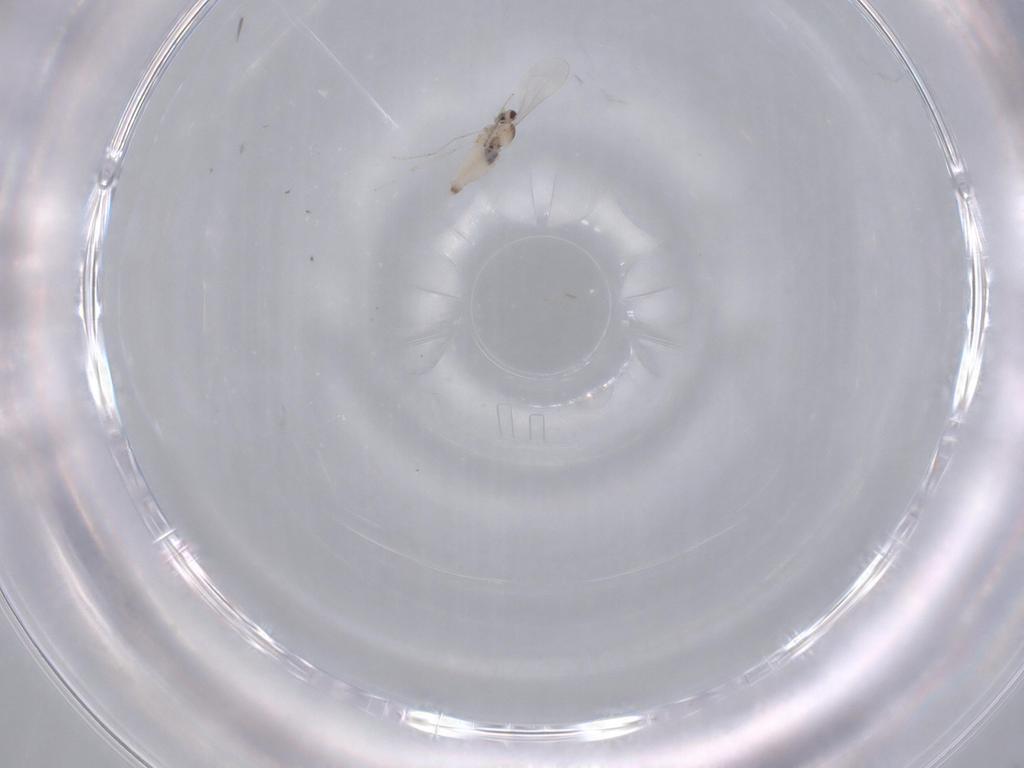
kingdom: Animalia
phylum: Arthropoda
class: Insecta
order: Diptera
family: Cecidomyiidae
